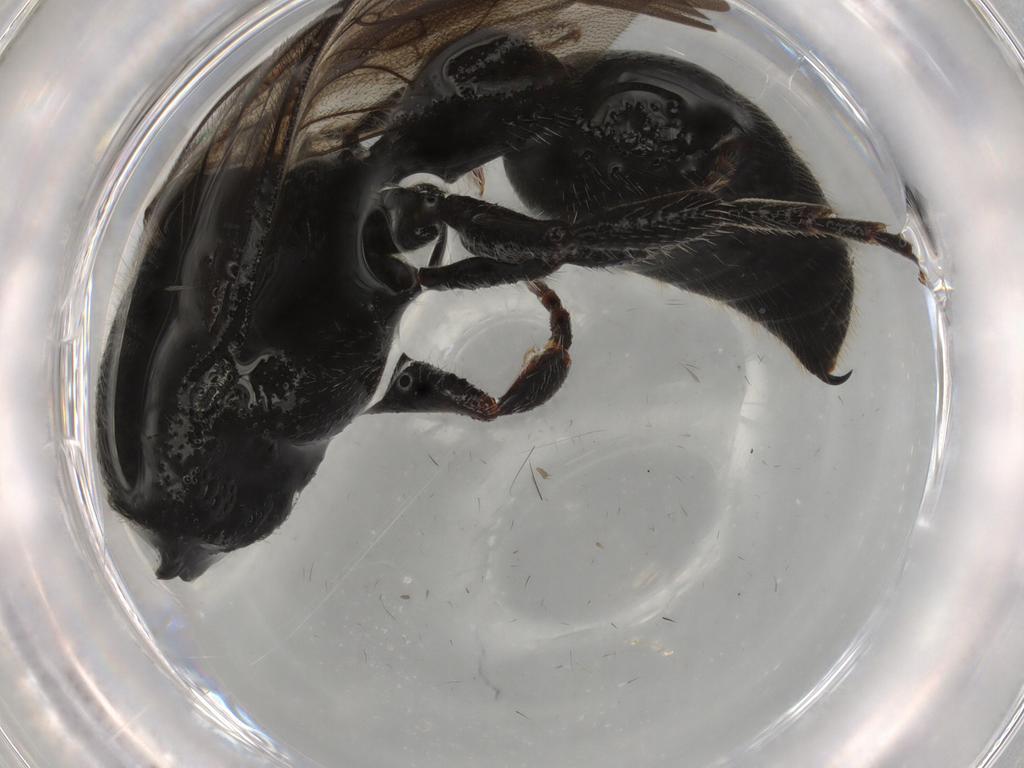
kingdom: Animalia
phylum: Arthropoda
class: Insecta
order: Hymenoptera
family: Tiphiidae
